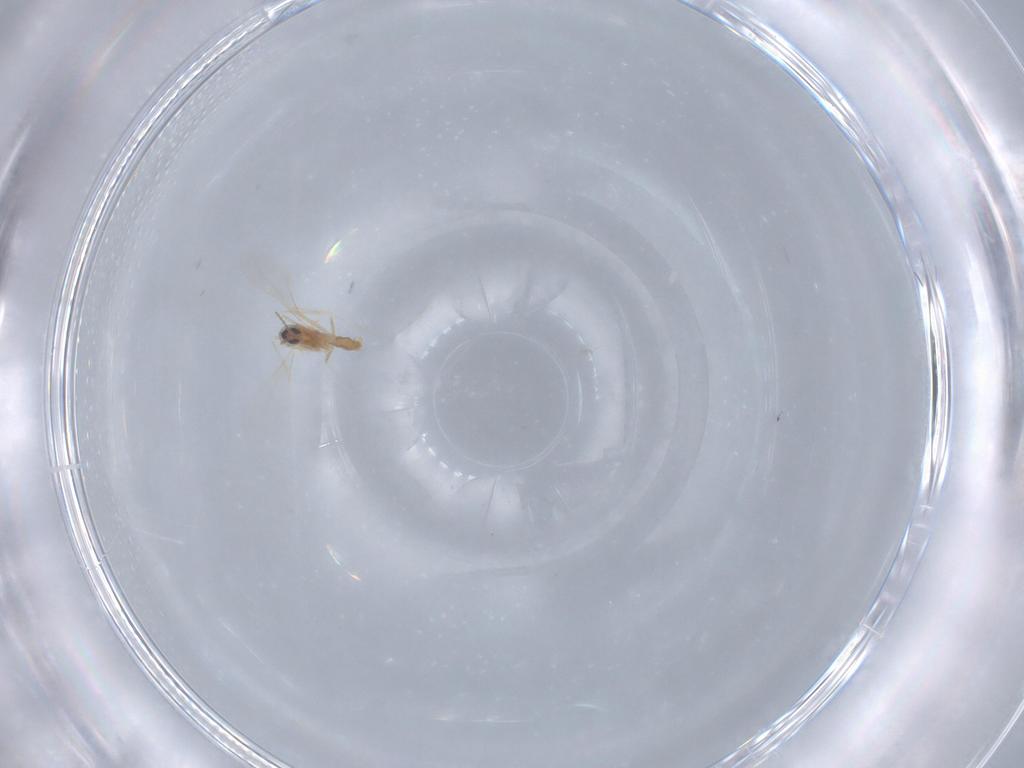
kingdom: Animalia
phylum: Arthropoda
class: Insecta
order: Diptera
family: Cecidomyiidae
